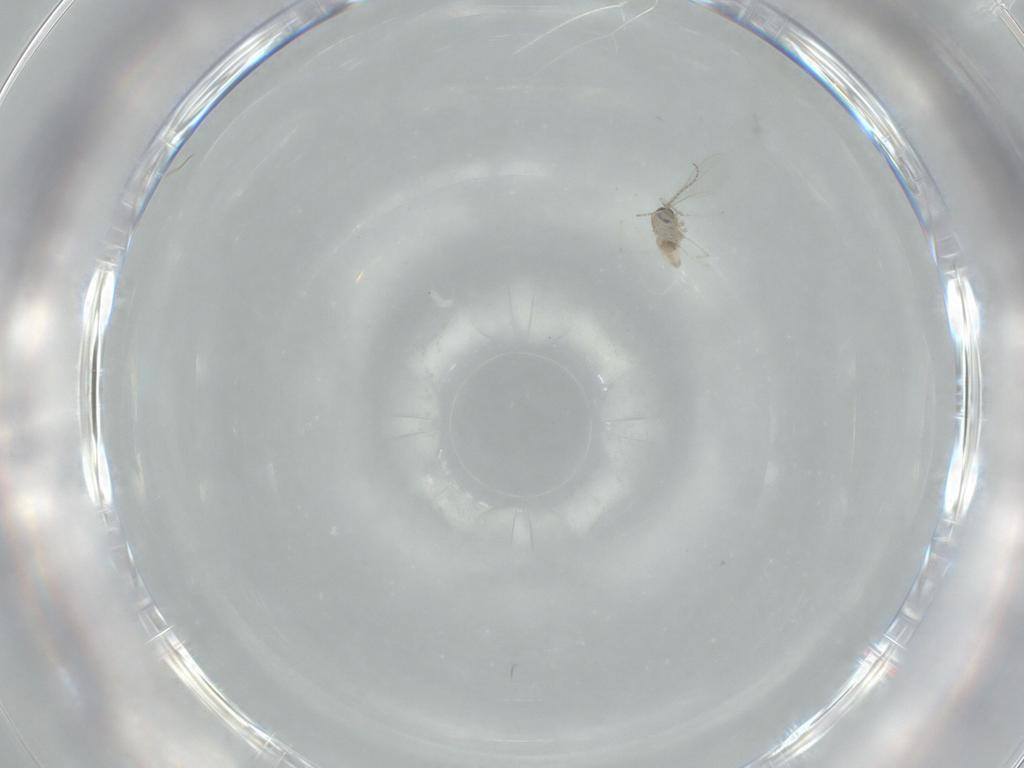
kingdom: Animalia
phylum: Arthropoda
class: Insecta
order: Diptera
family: Cecidomyiidae
